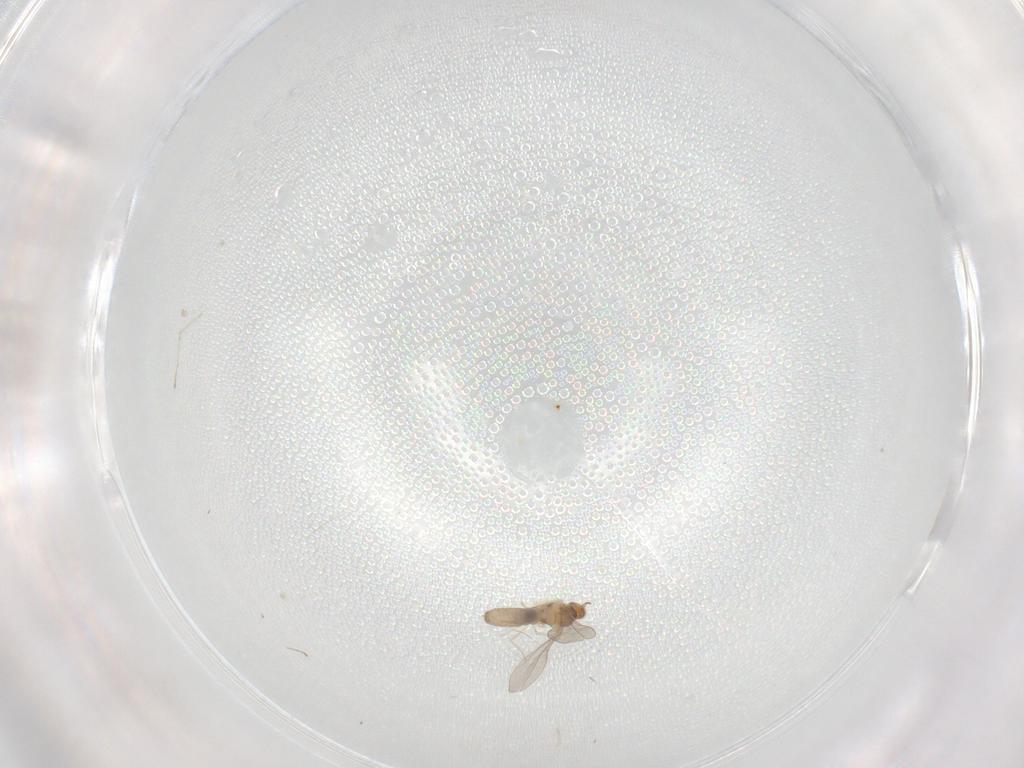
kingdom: Animalia
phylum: Arthropoda
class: Insecta
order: Diptera
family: Cecidomyiidae
